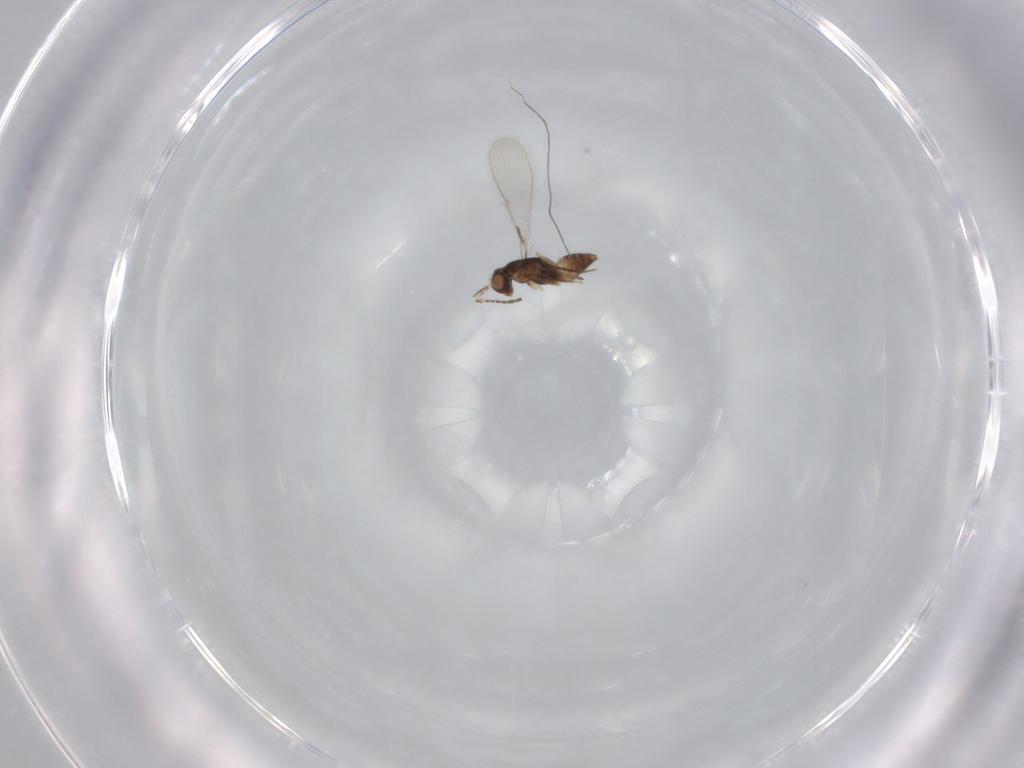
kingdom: Animalia
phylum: Arthropoda
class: Insecta
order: Hymenoptera
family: Mymaridae
